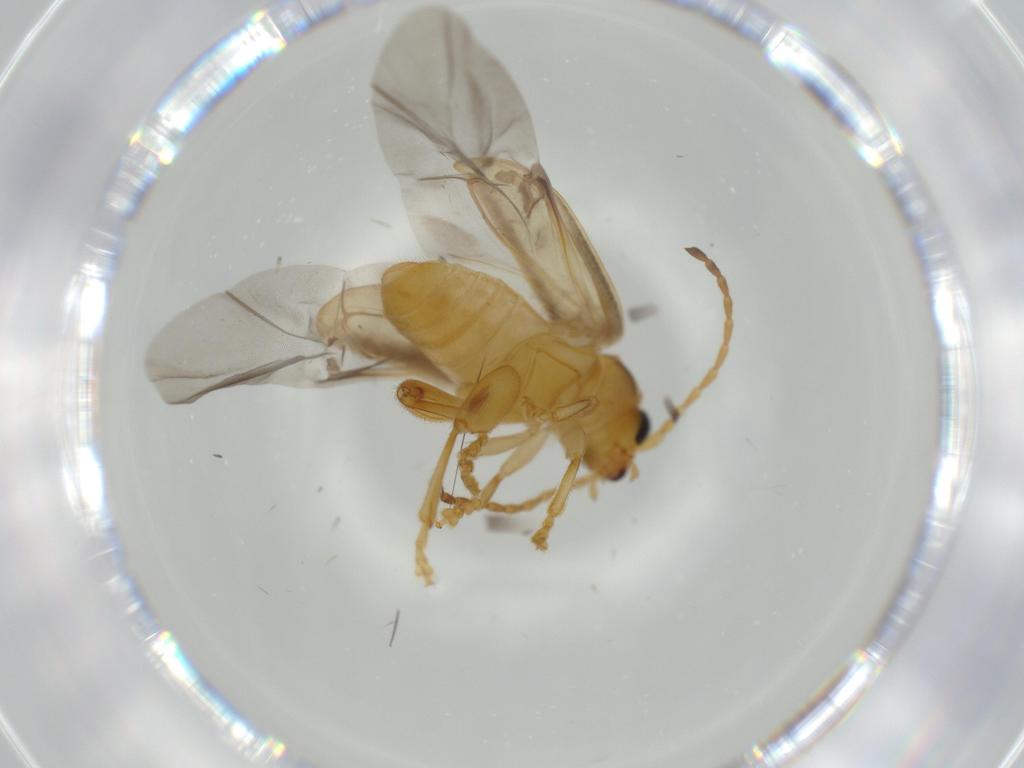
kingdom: Animalia
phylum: Arthropoda
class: Insecta
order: Coleoptera
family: Chrysomelidae
